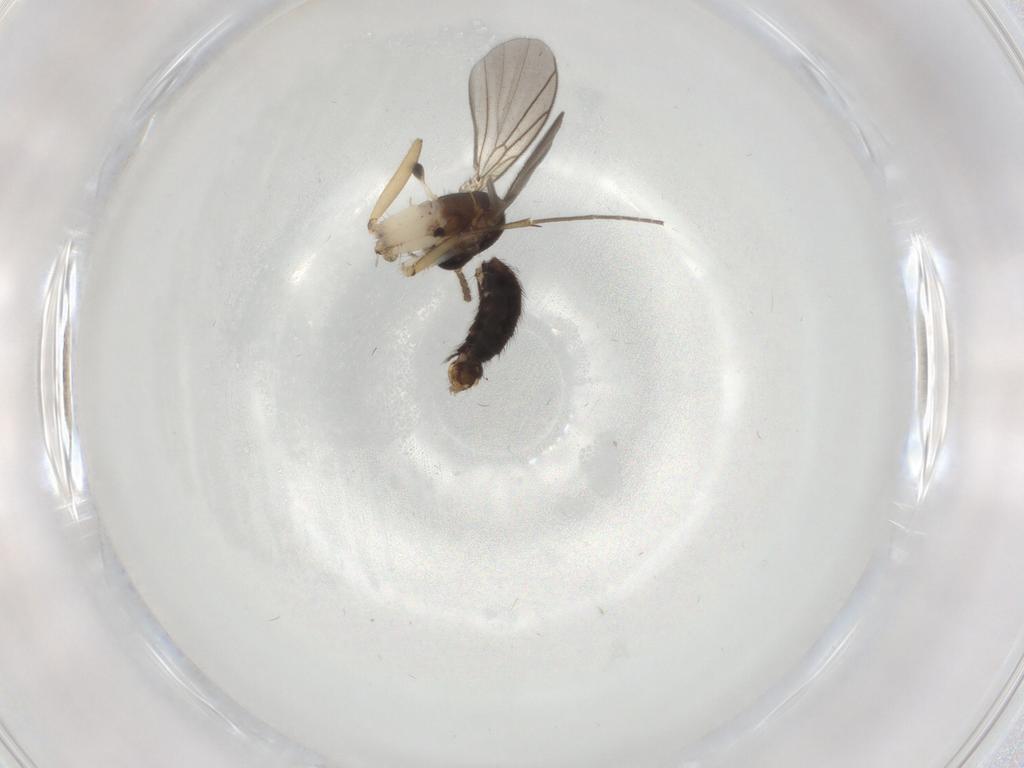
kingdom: Animalia
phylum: Arthropoda
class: Insecta
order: Diptera
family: Mycetophilidae
